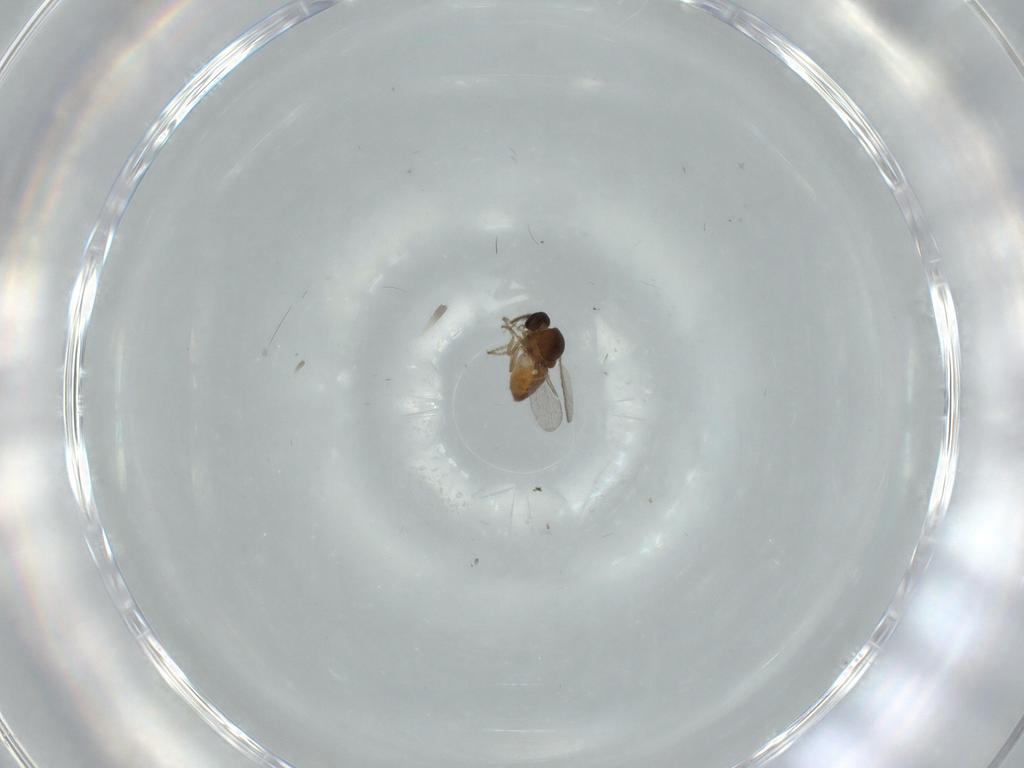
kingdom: Animalia
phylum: Arthropoda
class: Insecta
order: Diptera
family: Ceratopogonidae
